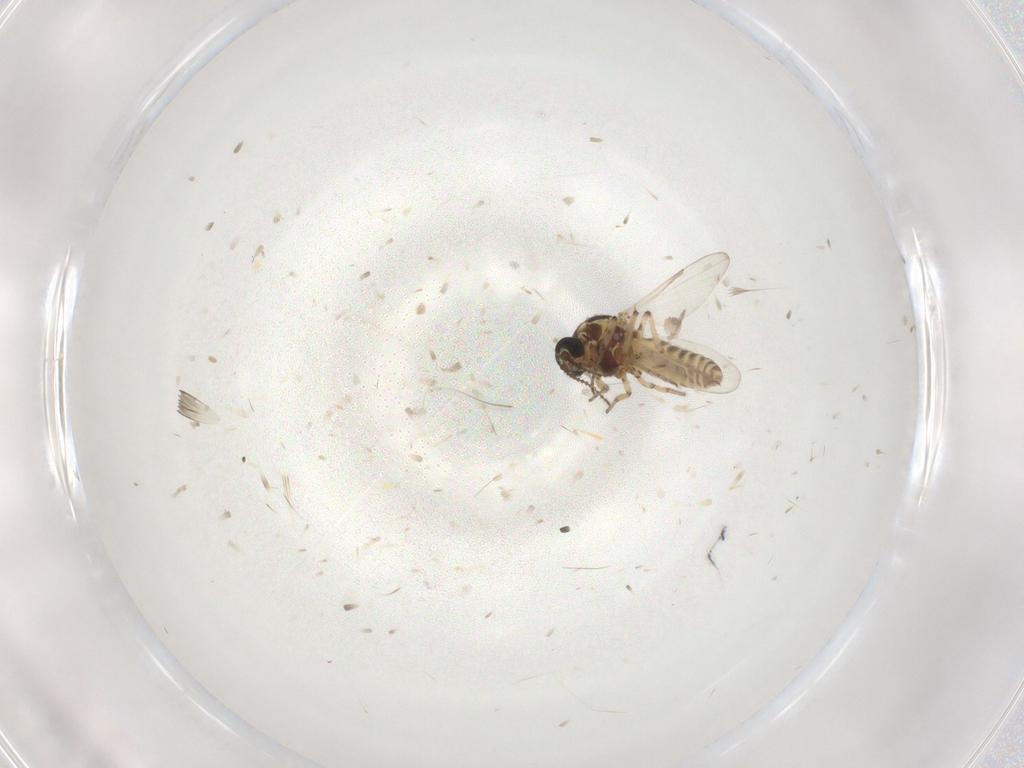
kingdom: Animalia
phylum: Arthropoda
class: Insecta
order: Diptera
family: Ceratopogonidae
